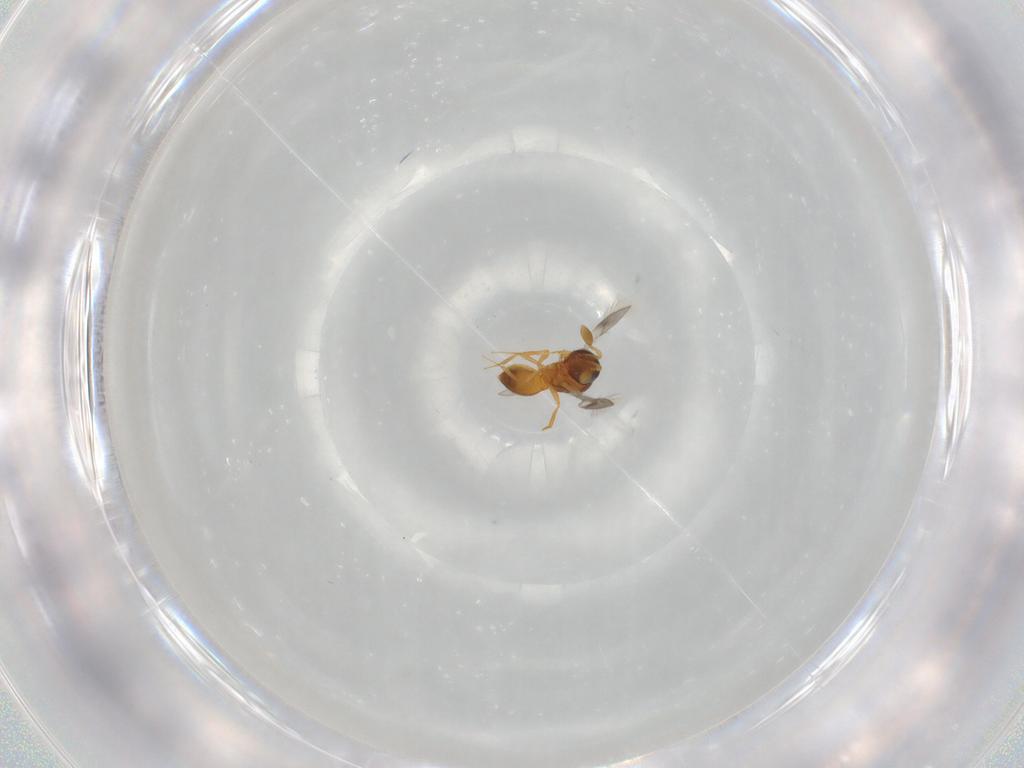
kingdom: Animalia
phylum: Arthropoda
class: Insecta
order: Hymenoptera
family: Scelionidae
